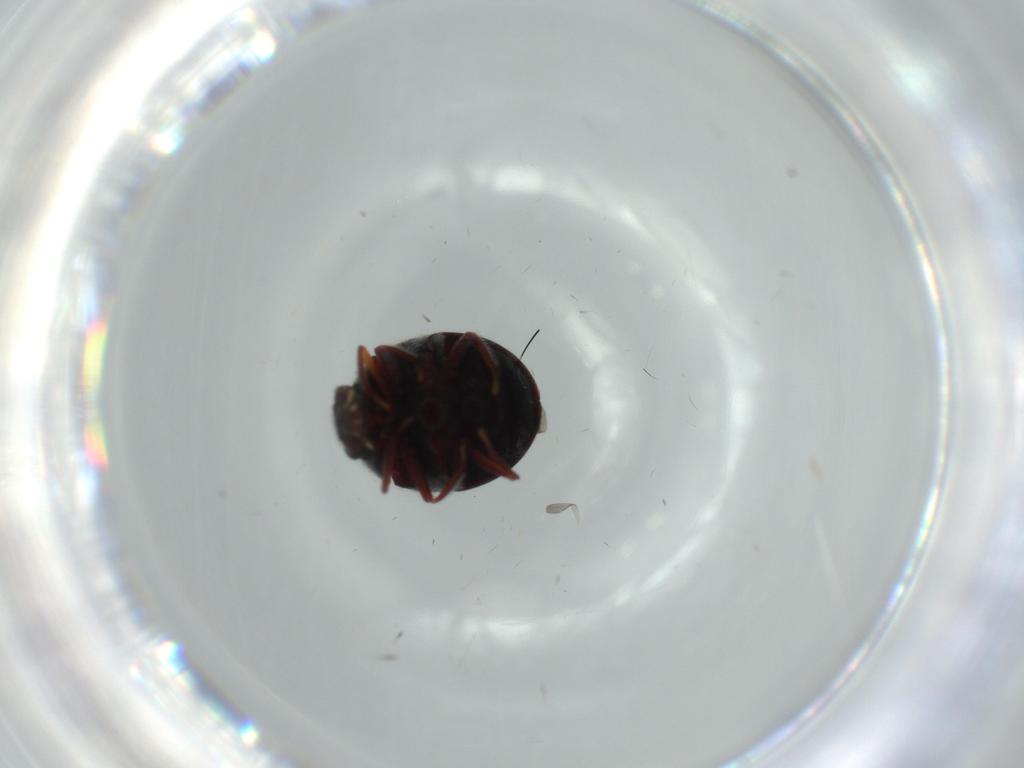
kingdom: Animalia
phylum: Arthropoda
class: Insecta
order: Coleoptera
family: Ptinidae
